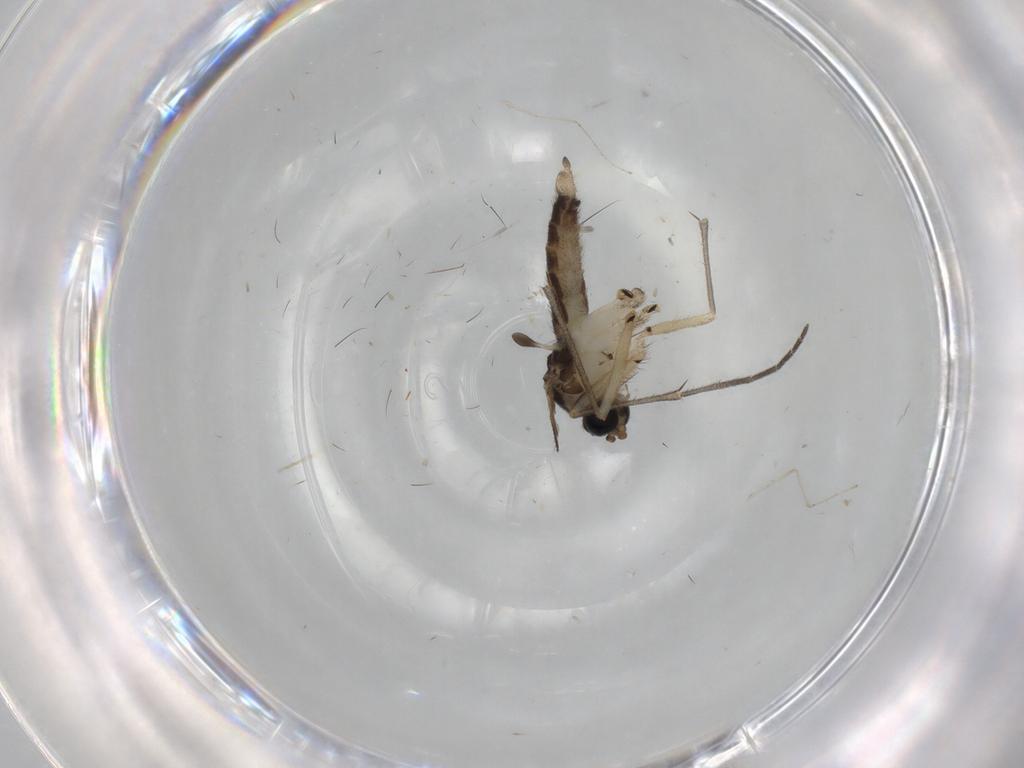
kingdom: Animalia
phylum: Arthropoda
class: Insecta
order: Diptera
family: Sciaridae
